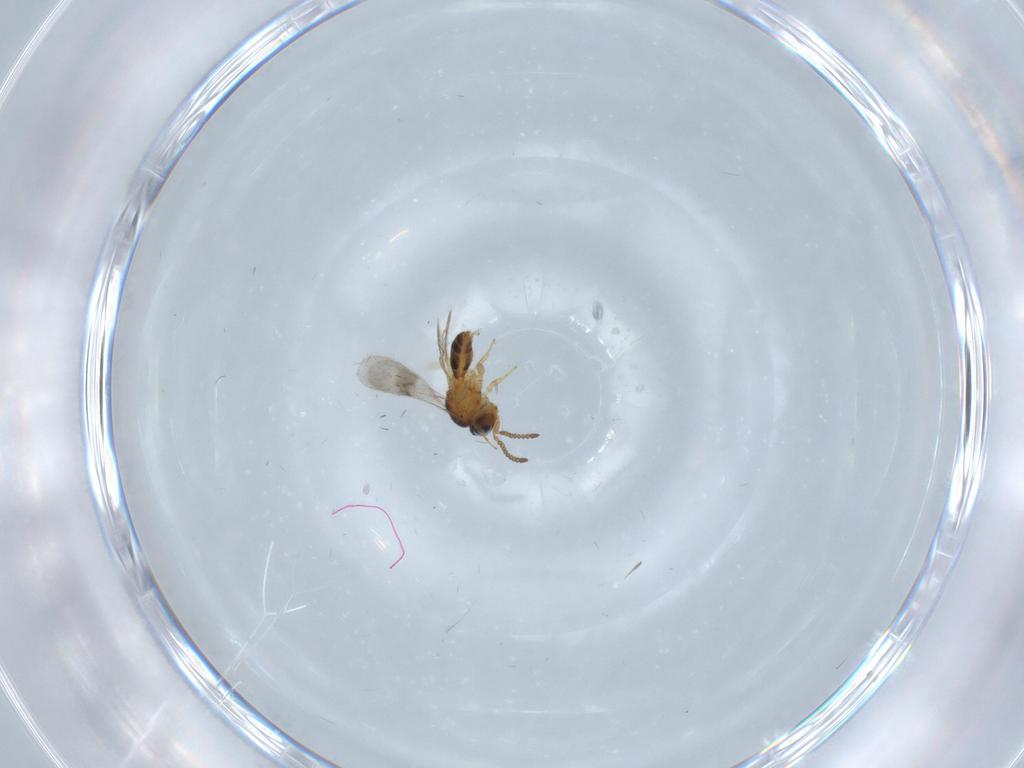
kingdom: Animalia
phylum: Arthropoda
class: Insecta
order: Hymenoptera
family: Scelionidae
